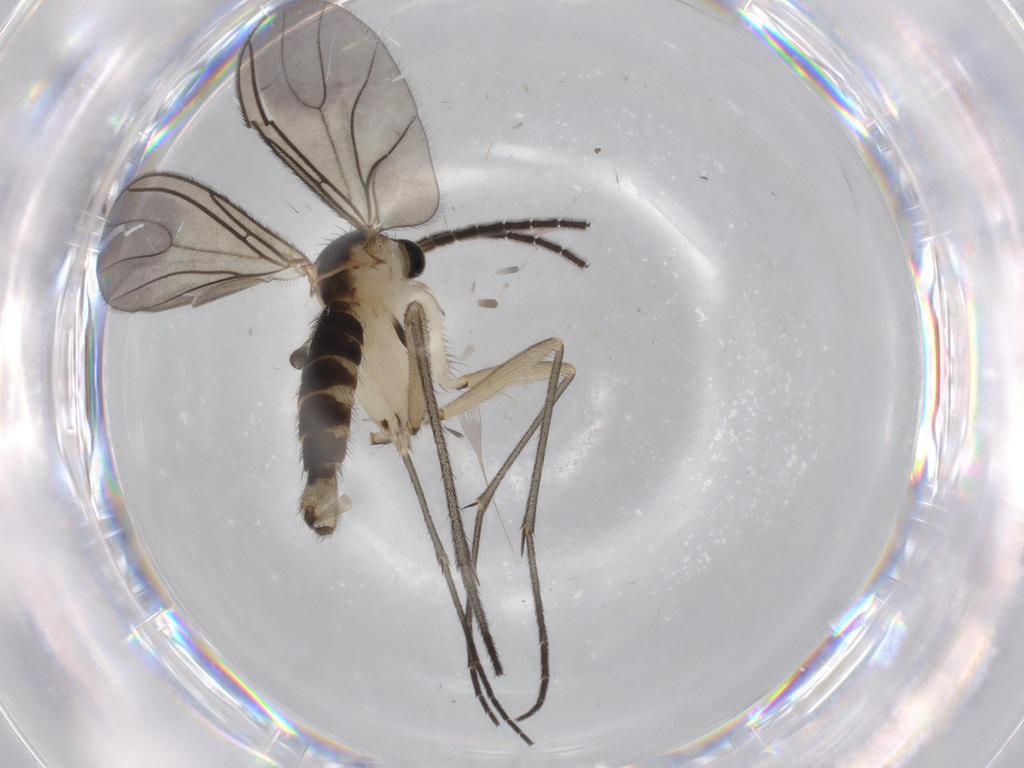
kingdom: Animalia
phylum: Arthropoda
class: Insecta
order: Diptera
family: Sciaridae
